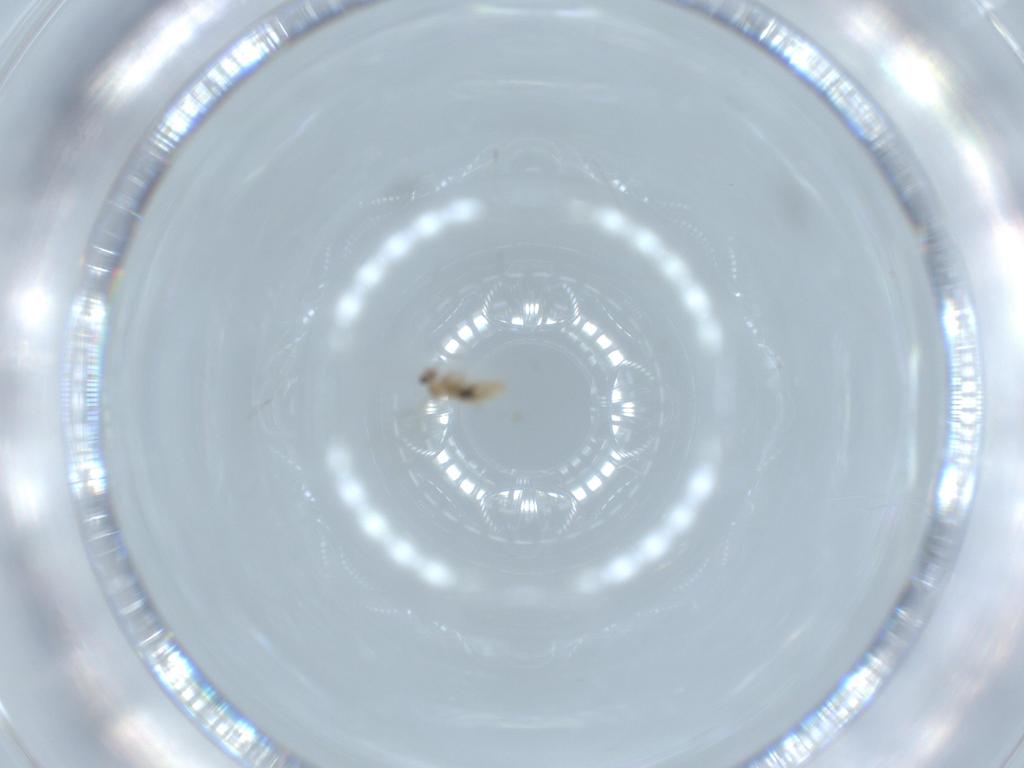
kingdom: Animalia
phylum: Arthropoda
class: Insecta
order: Diptera
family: Cecidomyiidae
